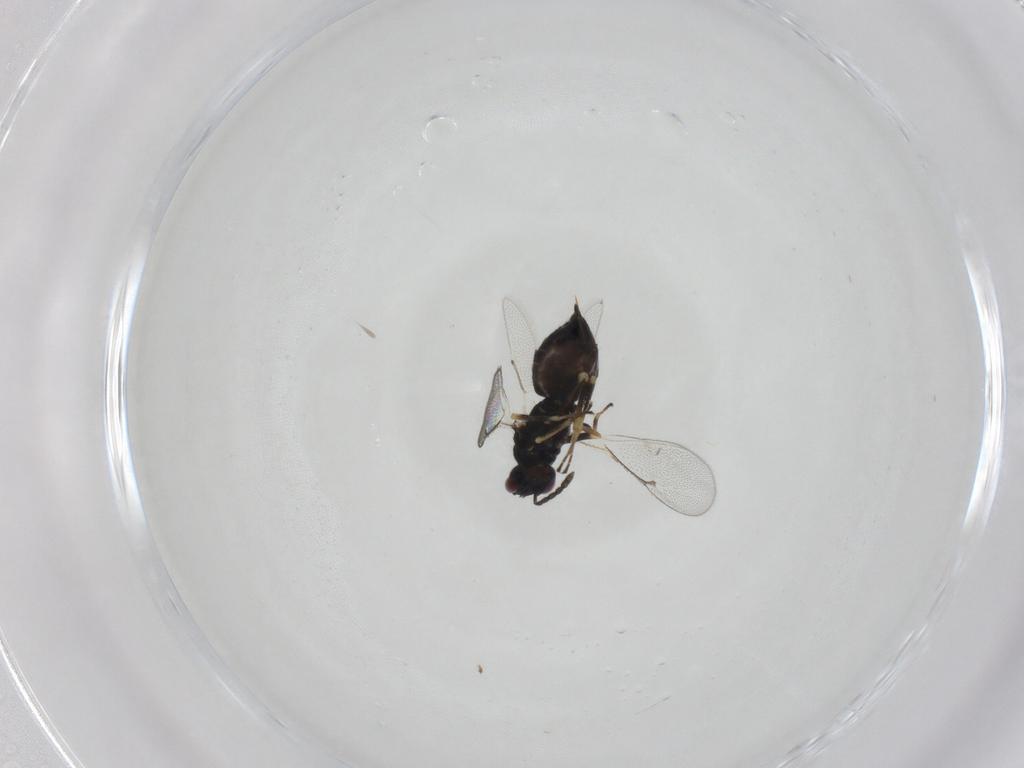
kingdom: Animalia
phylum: Arthropoda
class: Insecta
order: Hymenoptera
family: Eulophidae
